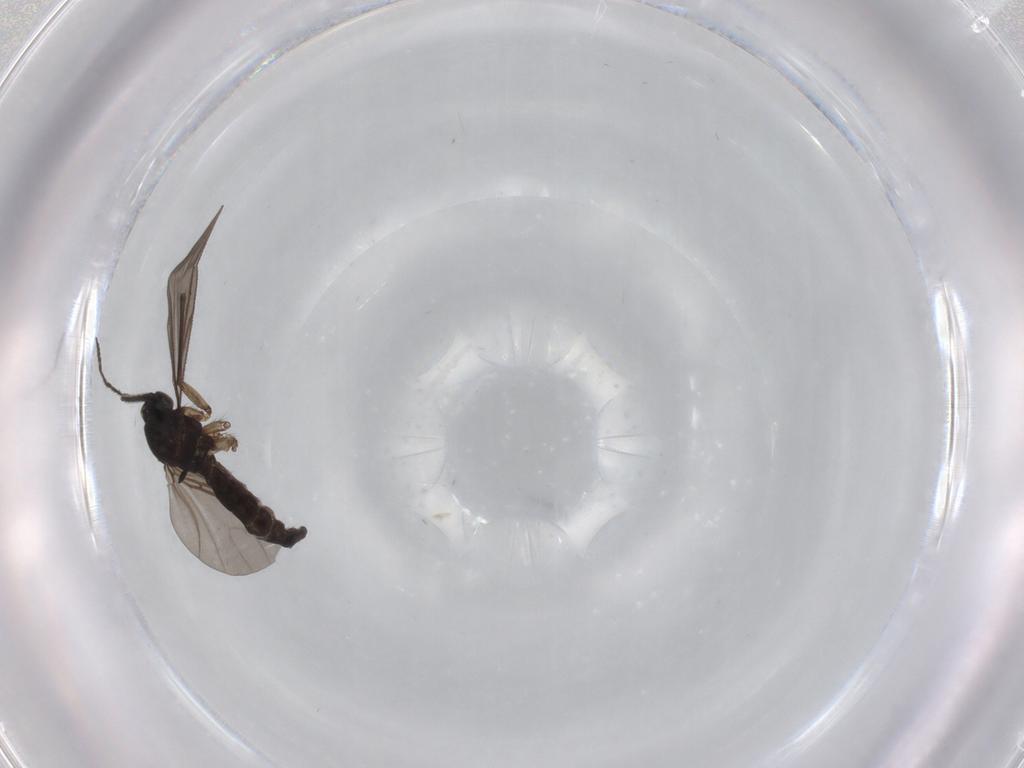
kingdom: Animalia
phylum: Arthropoda
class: Insecta
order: Diptera
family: Sciaridae
